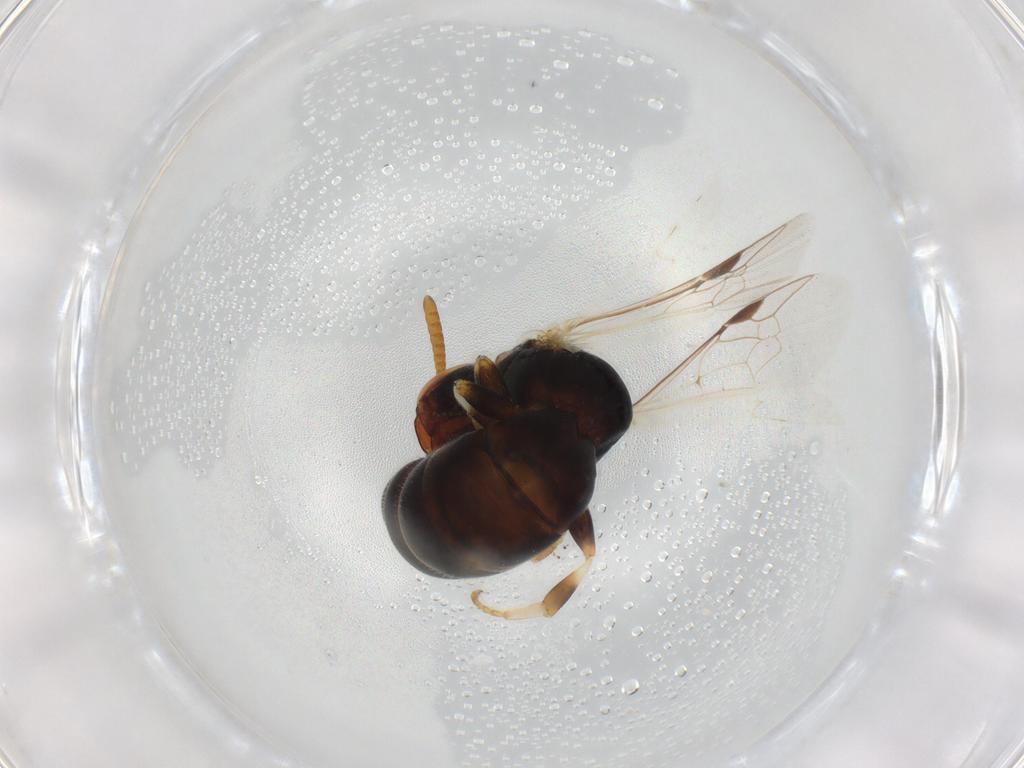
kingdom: Animalia
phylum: Arthropoda
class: Insecta
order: Hymenoptera
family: Colletidae
